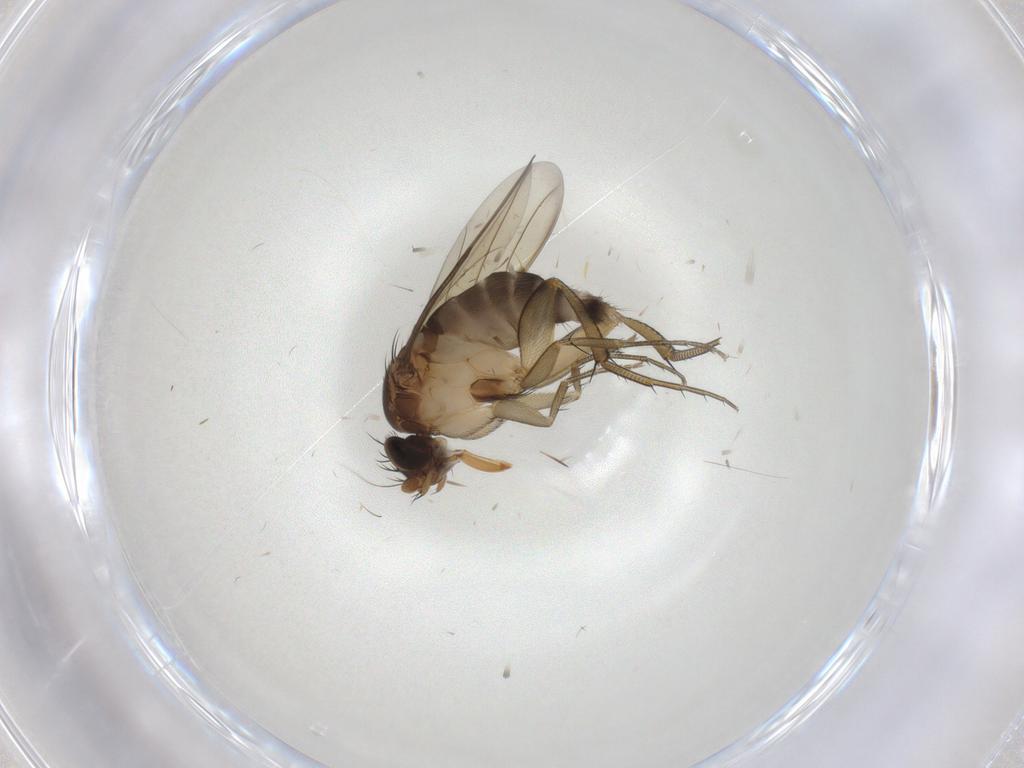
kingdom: Animalia
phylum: Arthropoda
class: Insecta
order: Diptera
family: Phoridae
